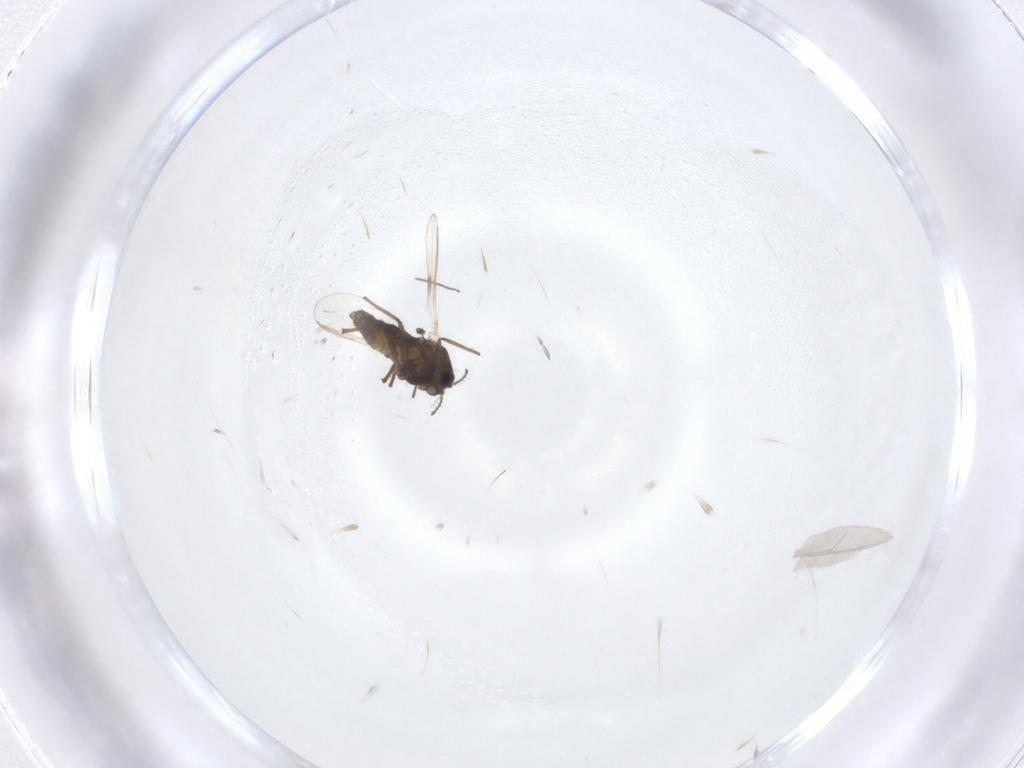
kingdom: Animalia
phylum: Arthropoda
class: Insecta
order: Diptera
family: Chironomidae
